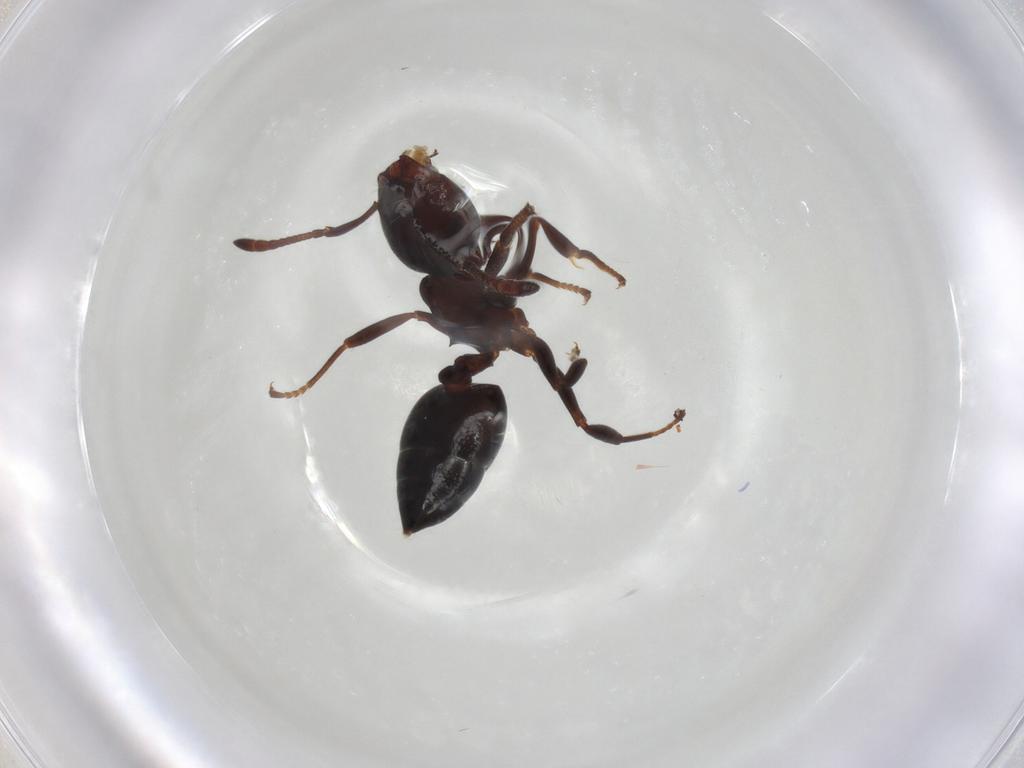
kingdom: Animalia
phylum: Arthropoda
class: Insecta
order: Hymenoptera
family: Formicidae
